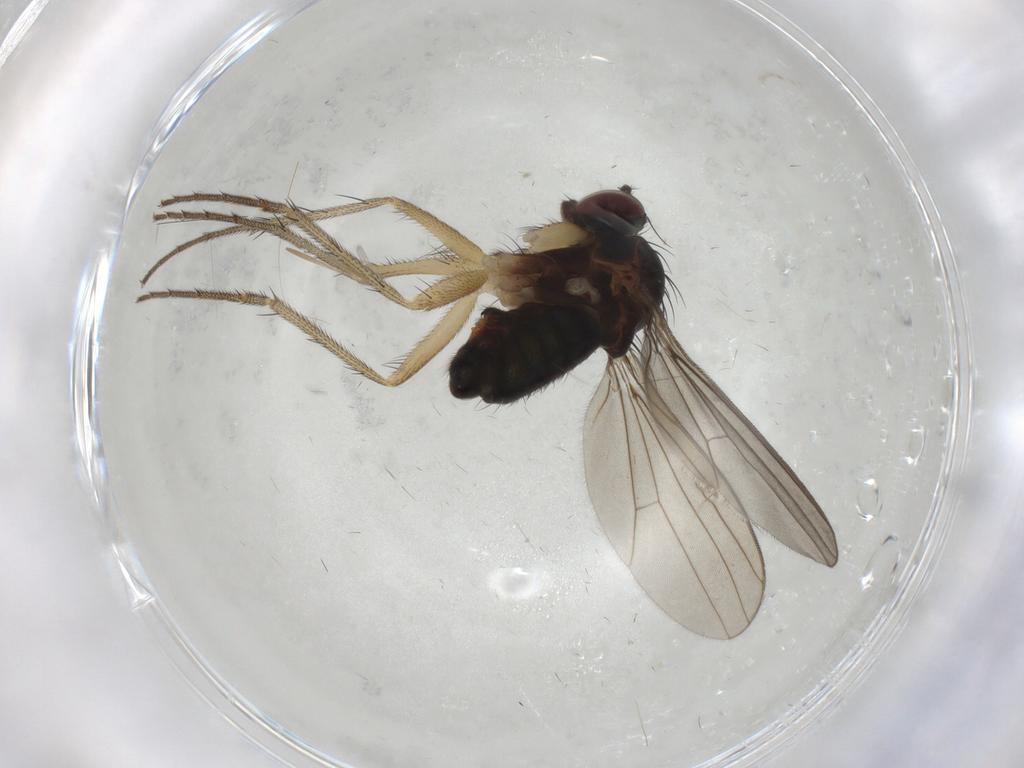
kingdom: Animalia
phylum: Arthropoda
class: Insecta
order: Diptera
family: Dolichopodidae
